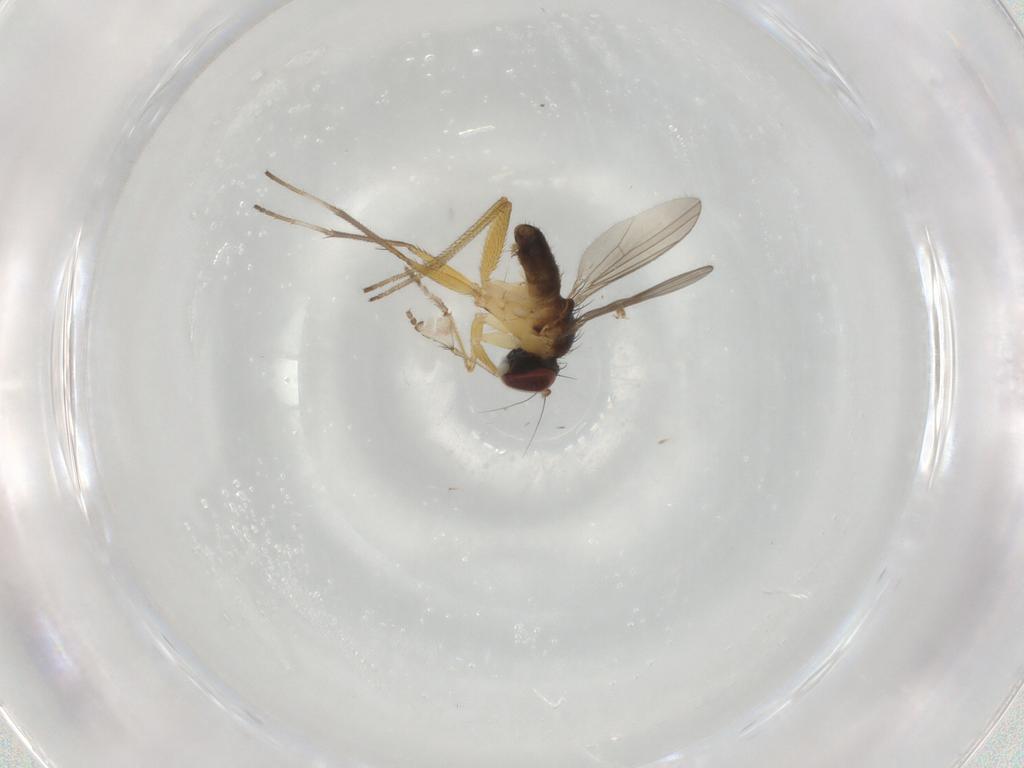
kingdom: Animalia
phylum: Arthropoda
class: Insecta
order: Diptera
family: Dolichopodidae
